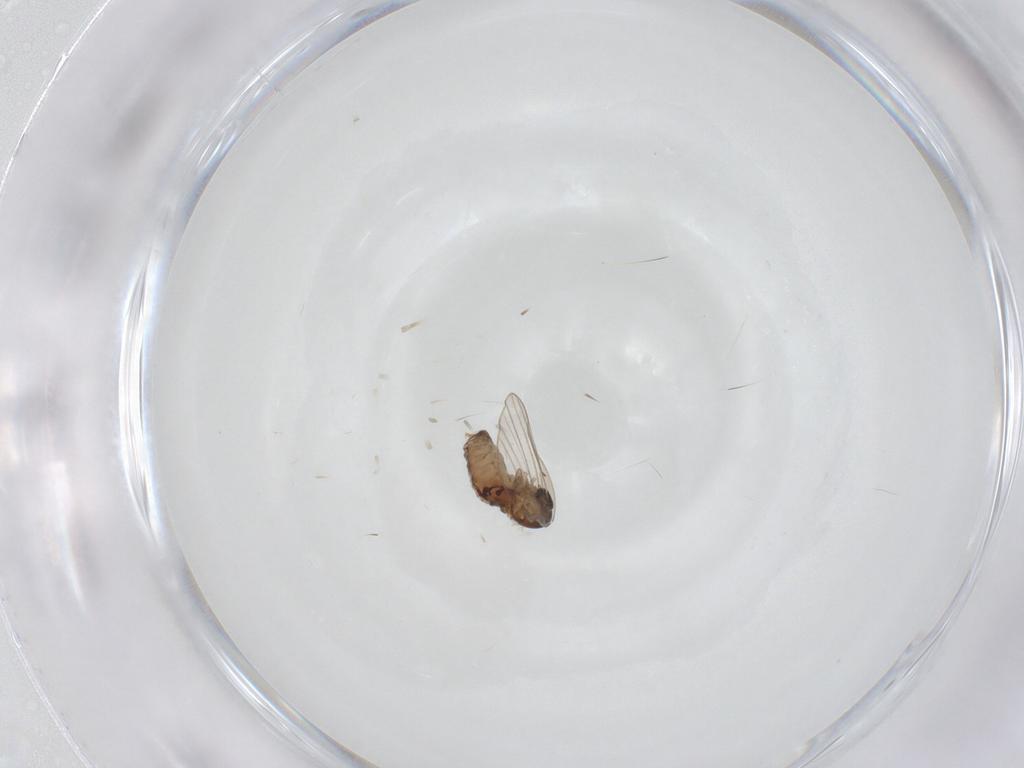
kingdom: Animalia
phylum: Arthropoda
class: Insecta
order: Diptera
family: Psychodidae
